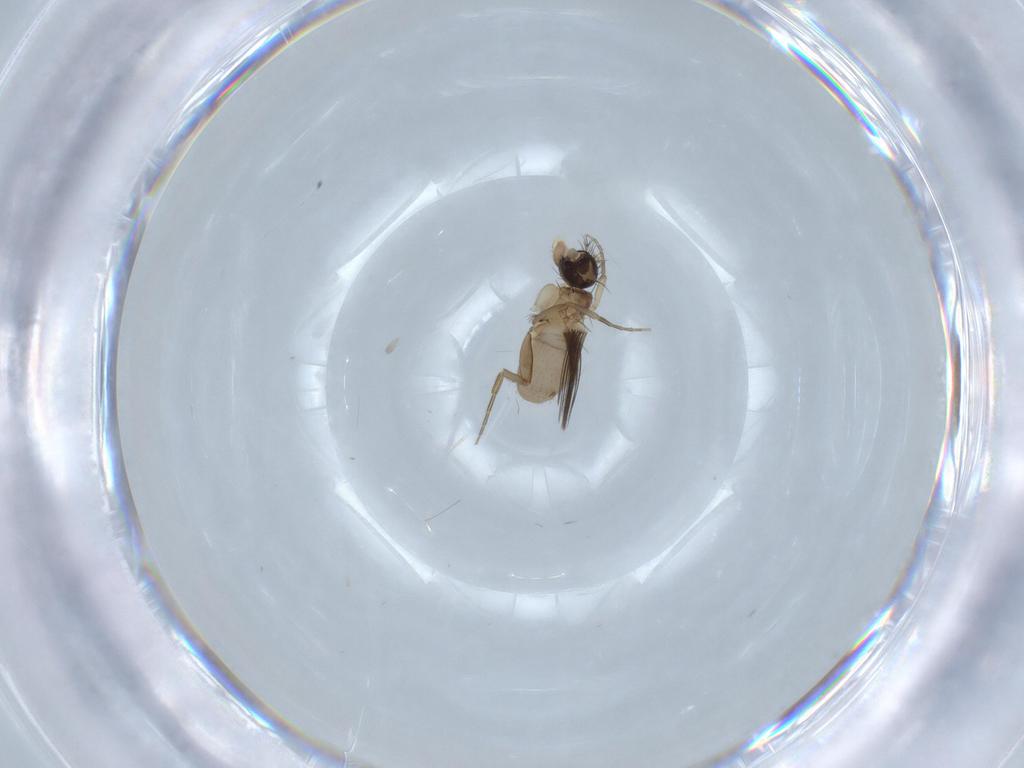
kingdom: Animalia
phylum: Arthropoda
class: Insecta
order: Diptera
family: Phoridae
